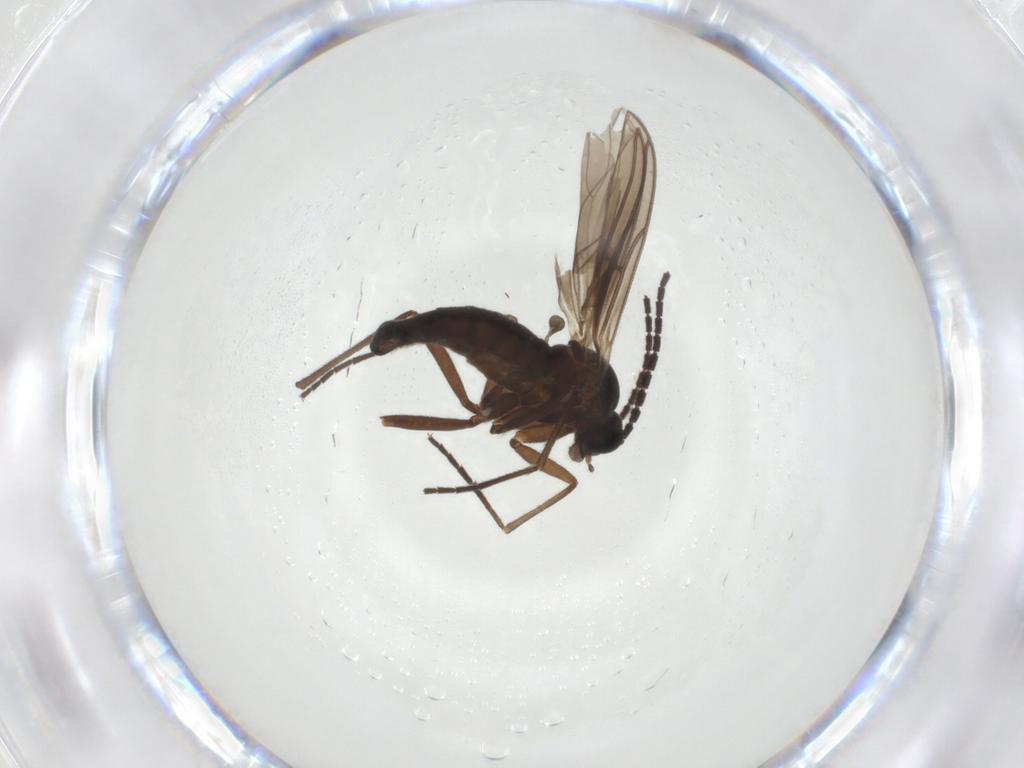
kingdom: Animalia
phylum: Arthropoda
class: Insecta
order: Diptera
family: Sciaridae
